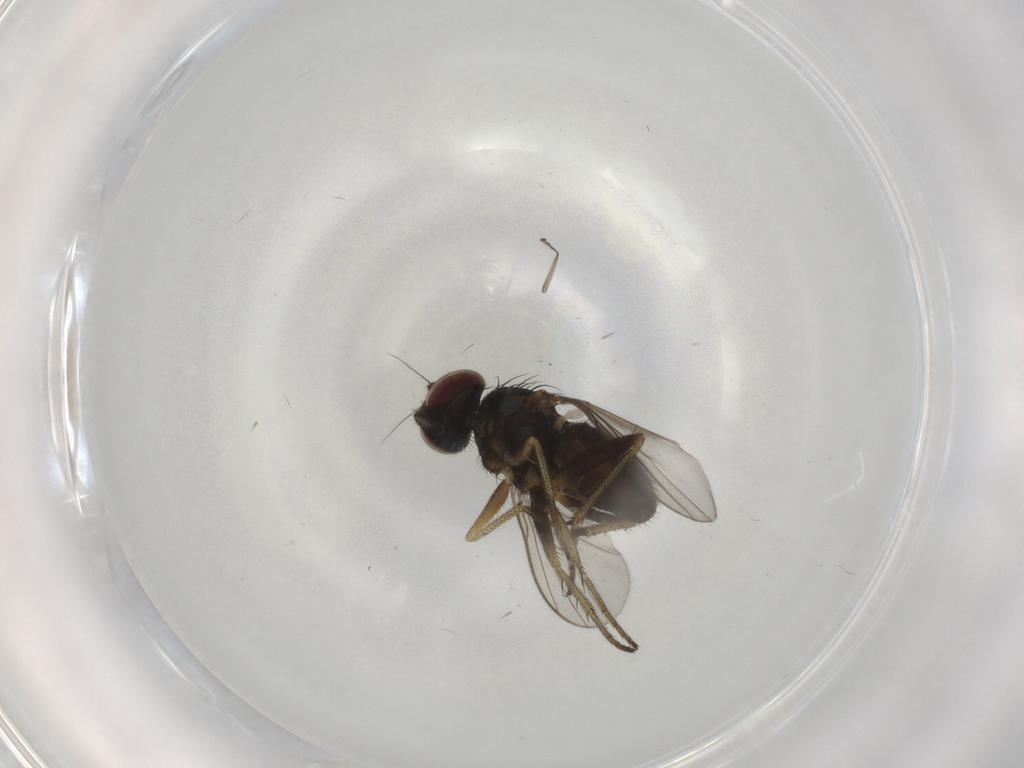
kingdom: Animalia
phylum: Arthropoda
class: Insecta
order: Diptera
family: Dolichopodidae
